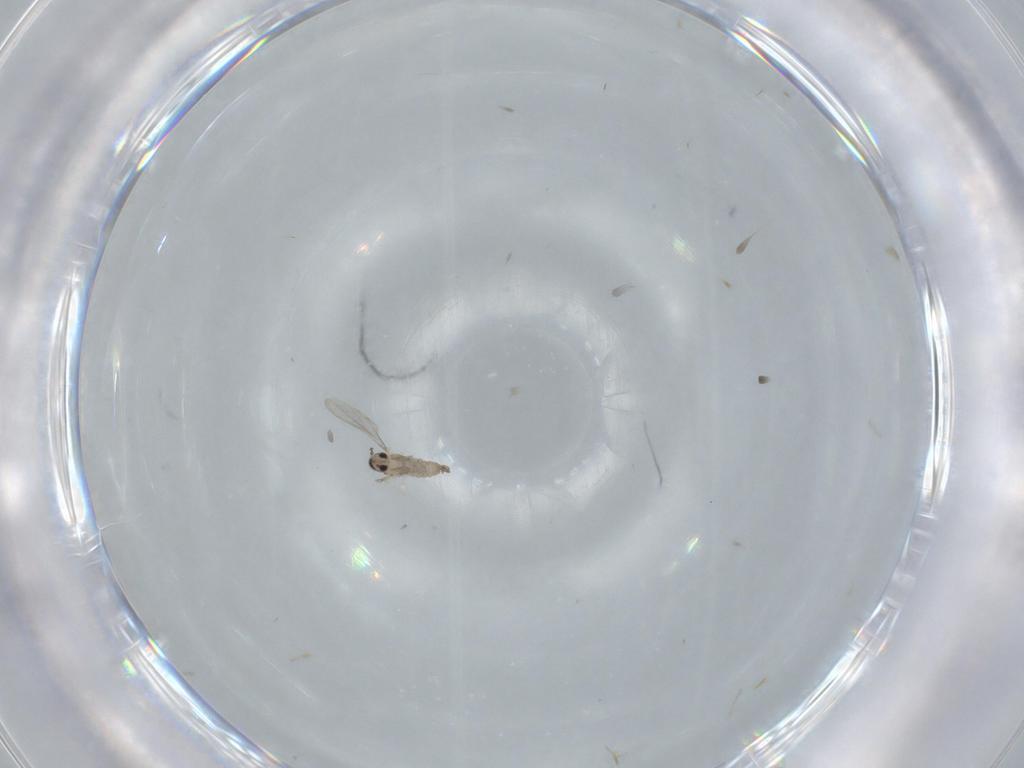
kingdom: Animalia
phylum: Arthropoda
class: Insecta
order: Diptera
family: Cecidomyiidae
